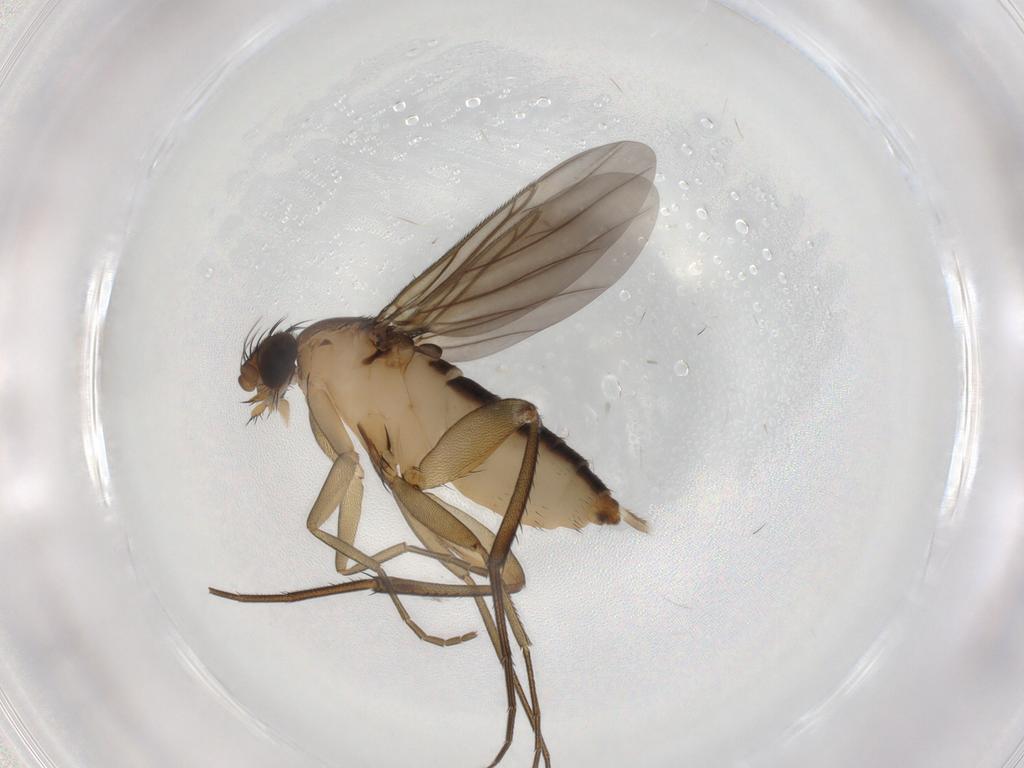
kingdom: Animalia
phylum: Arthropoda
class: Insecta
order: Diptera
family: Phoridae
